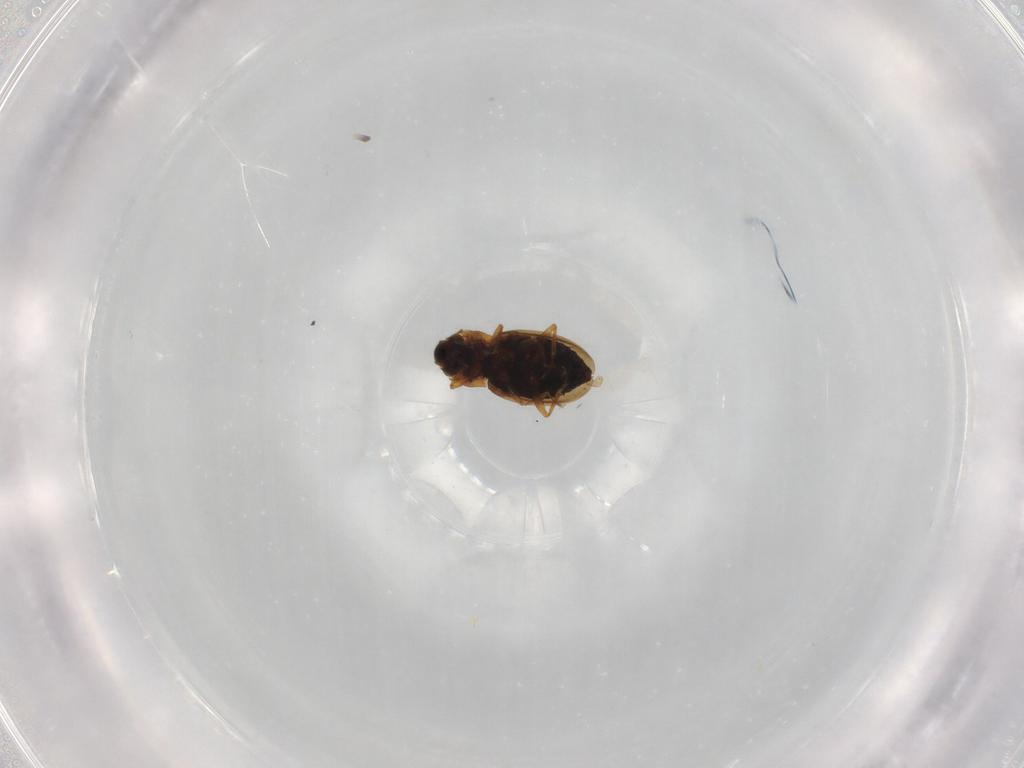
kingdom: Animalia
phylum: Arthropoda
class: Insecta
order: Coleoptera
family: Hydraenidae
